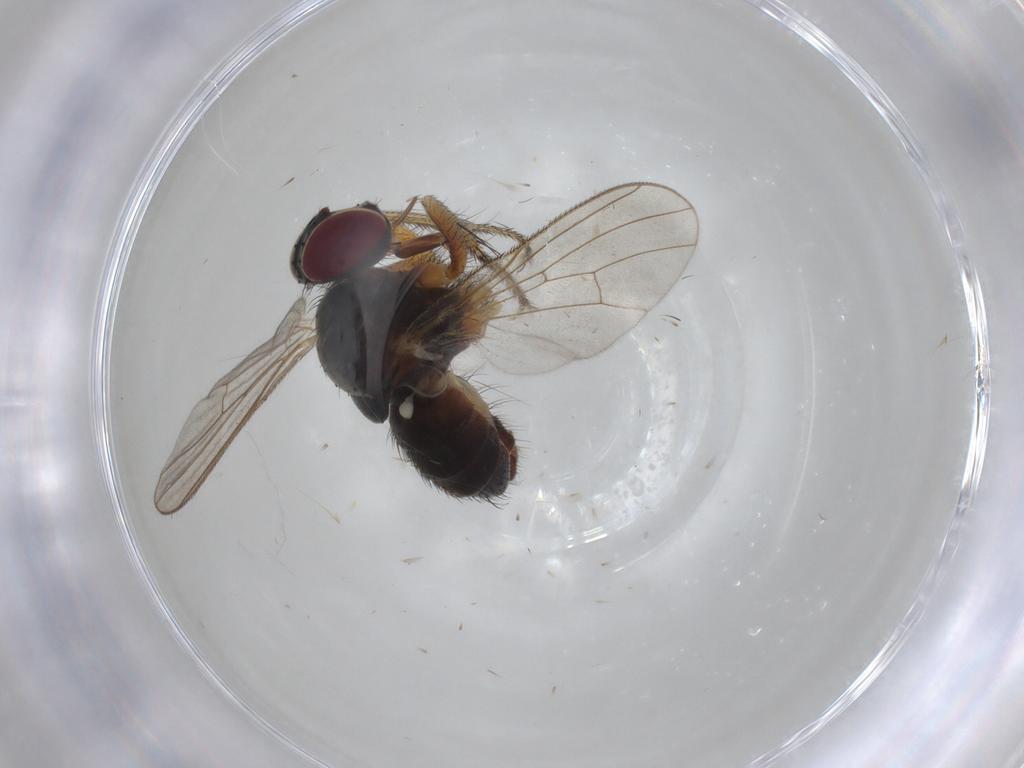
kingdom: Animalia
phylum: Arthropoda
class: Insecta
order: Diptera
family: Muscidae
